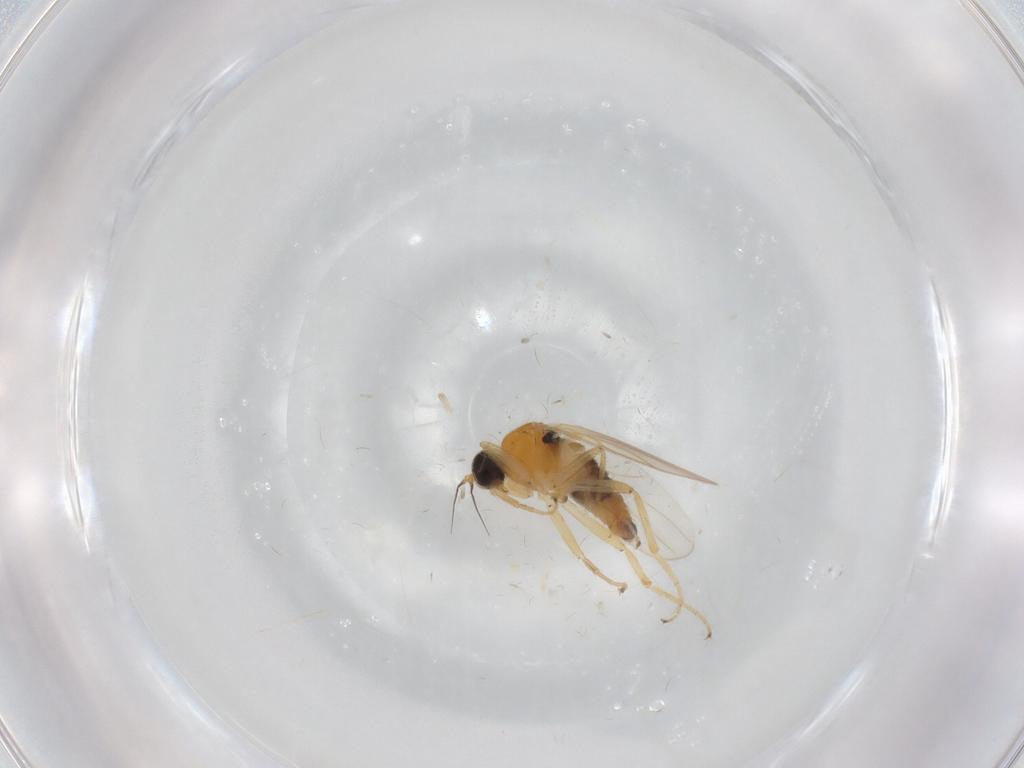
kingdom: Animalia
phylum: Arthropoda
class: Insecta
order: Diptera
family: Hybotidae
